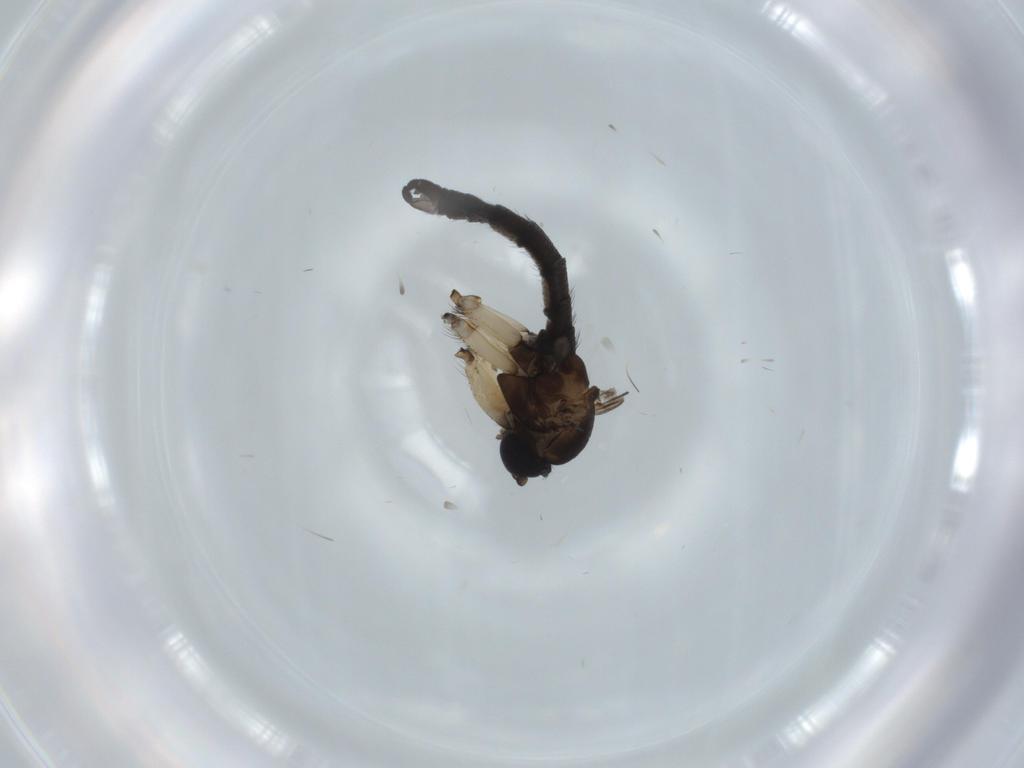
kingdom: Animalia
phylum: Arthropoda
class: Insecta
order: Diptera
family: Sciaridae
